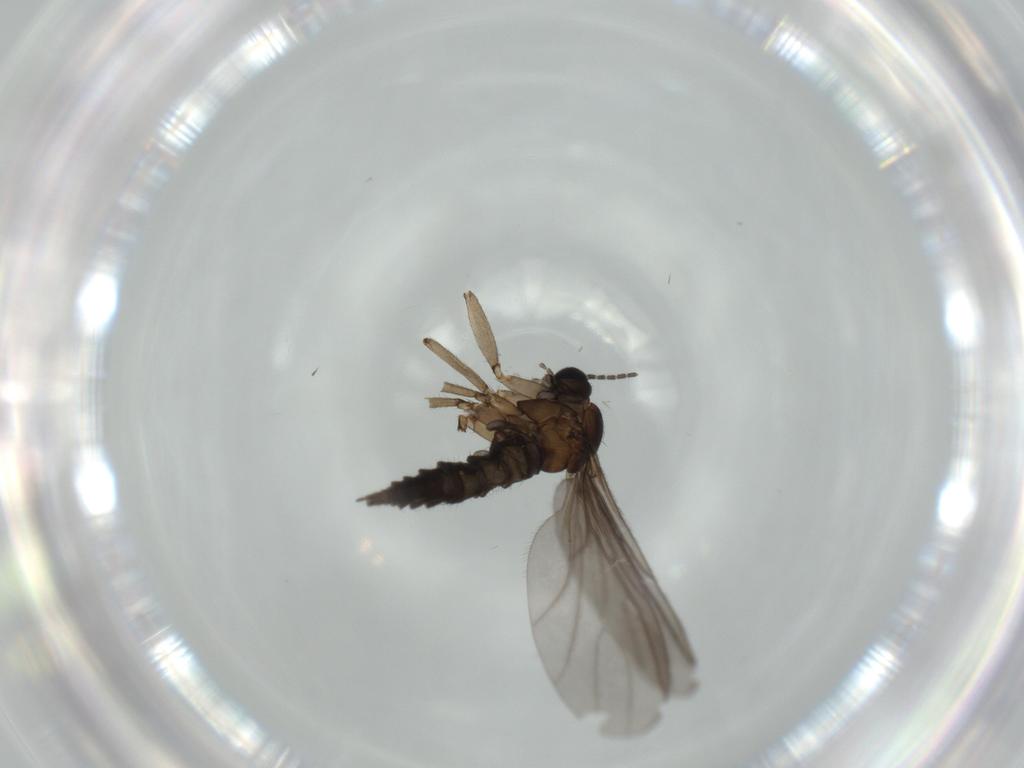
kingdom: Animalia
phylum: Arthropoda
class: Insecta
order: Diptera
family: Sciaridae
